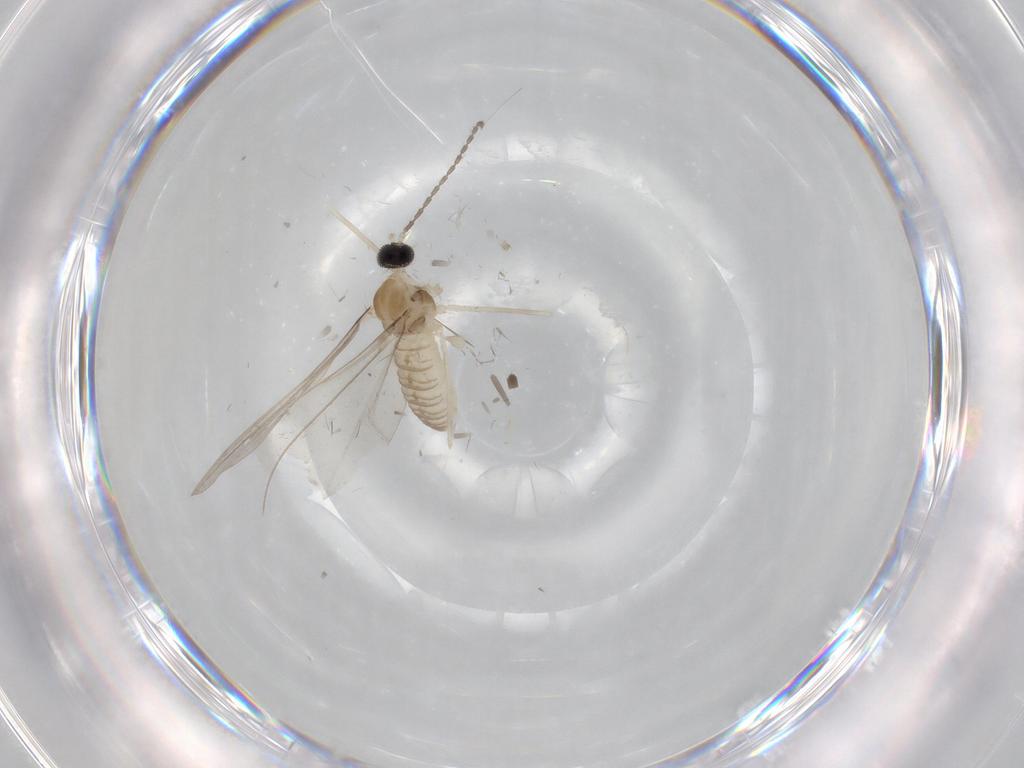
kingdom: Animalia
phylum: Arthropoda
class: Insecta
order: Diptera
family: Cecidomyiidae
